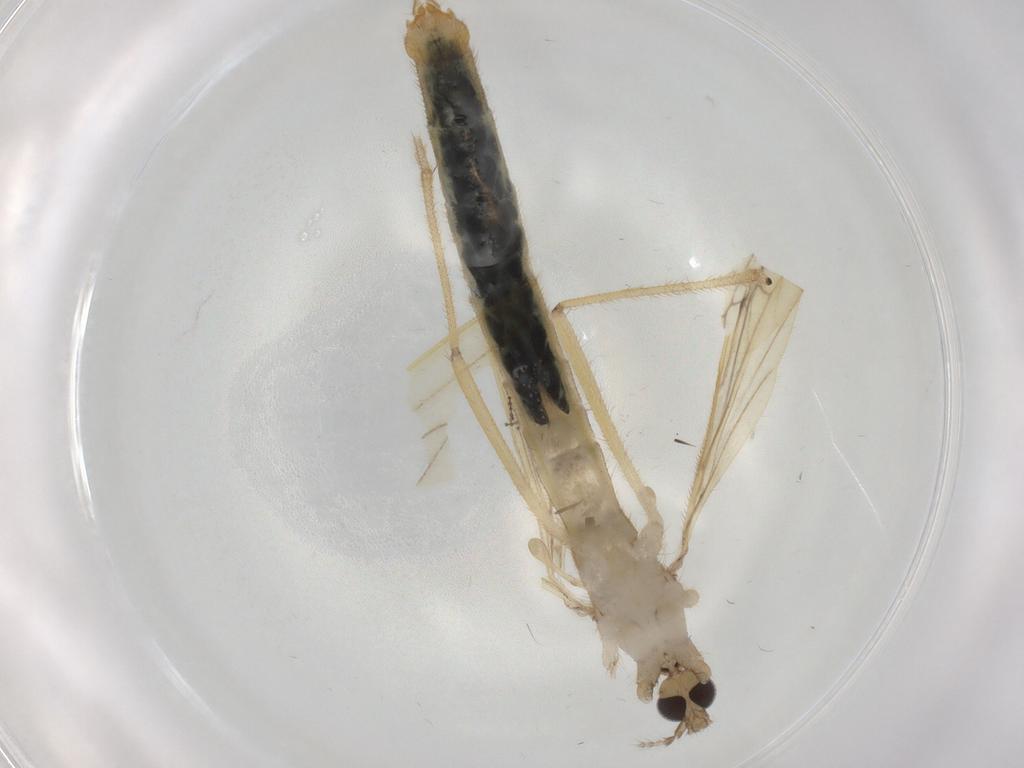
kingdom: Animalia
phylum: Arthropoda
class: Insecta
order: Diptera
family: Limoniidae
